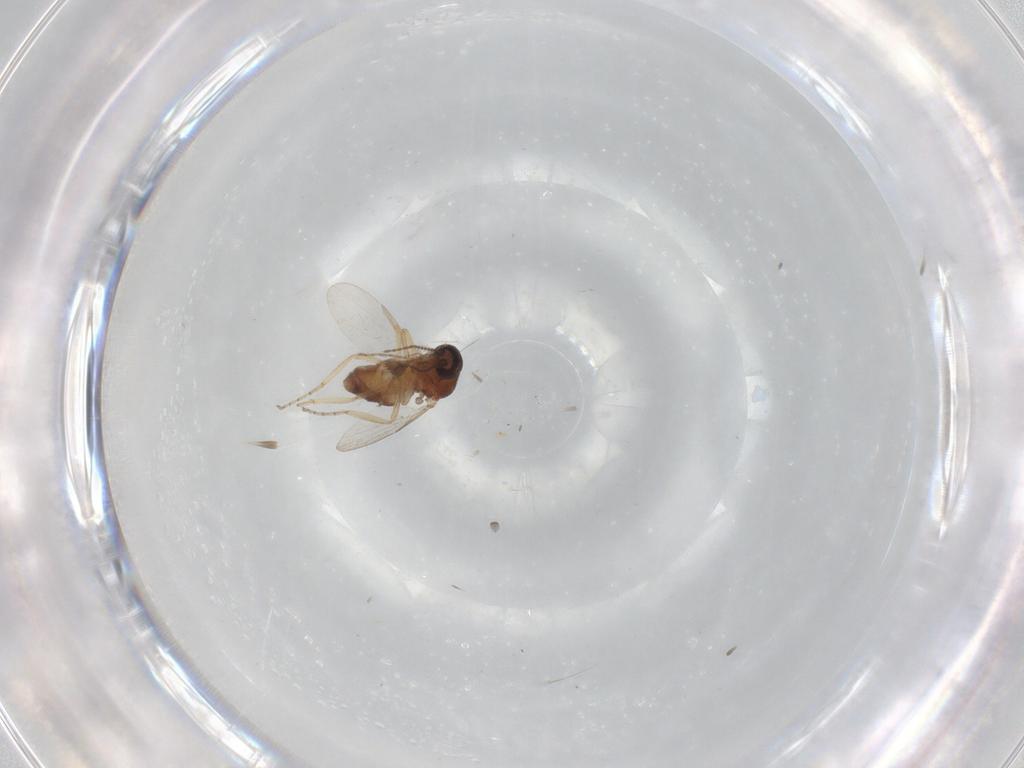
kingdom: Animalia
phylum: Arthropoda
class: Insecta
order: Diptera
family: Ceratopogonidae
